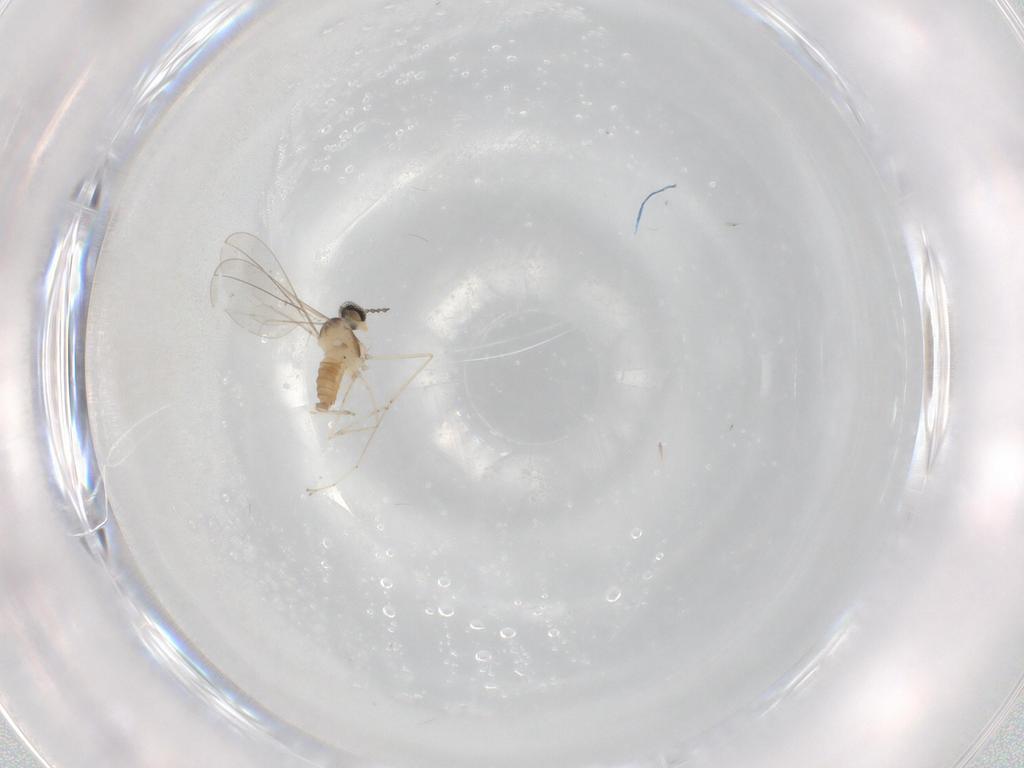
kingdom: Animalia
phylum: Arthropoda
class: Insecta
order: Diptera
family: Cecidomyiidae
